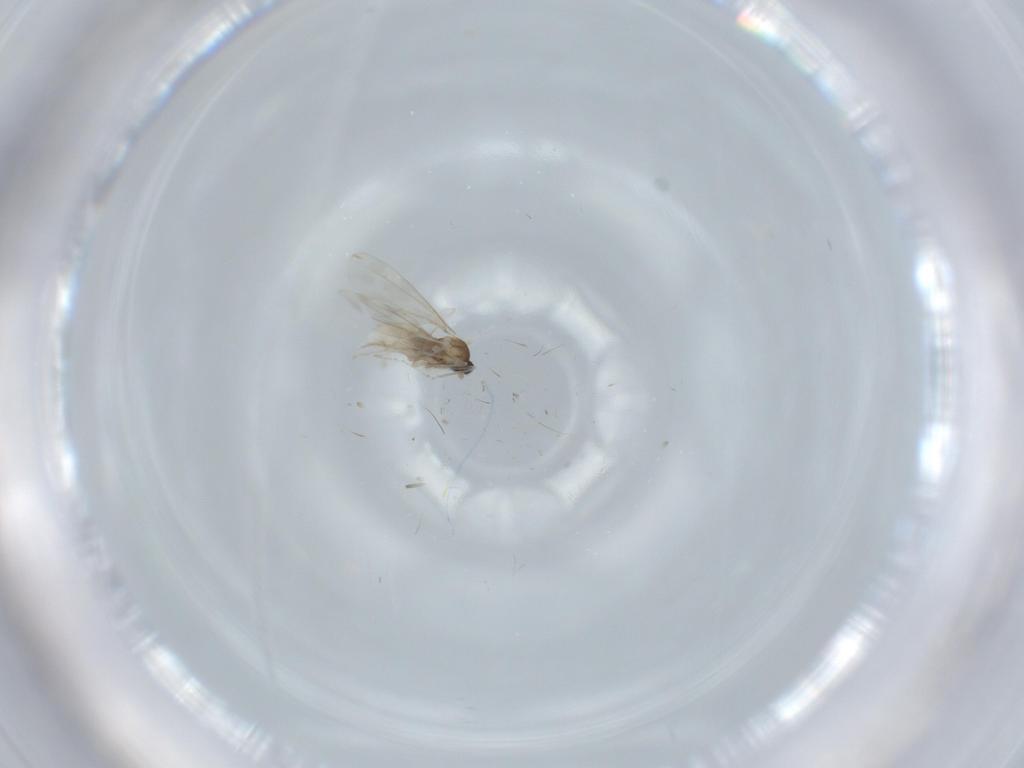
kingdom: Animalia
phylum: Arthropoda
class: Insecta
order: Diptera
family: Cecidomyiidae
